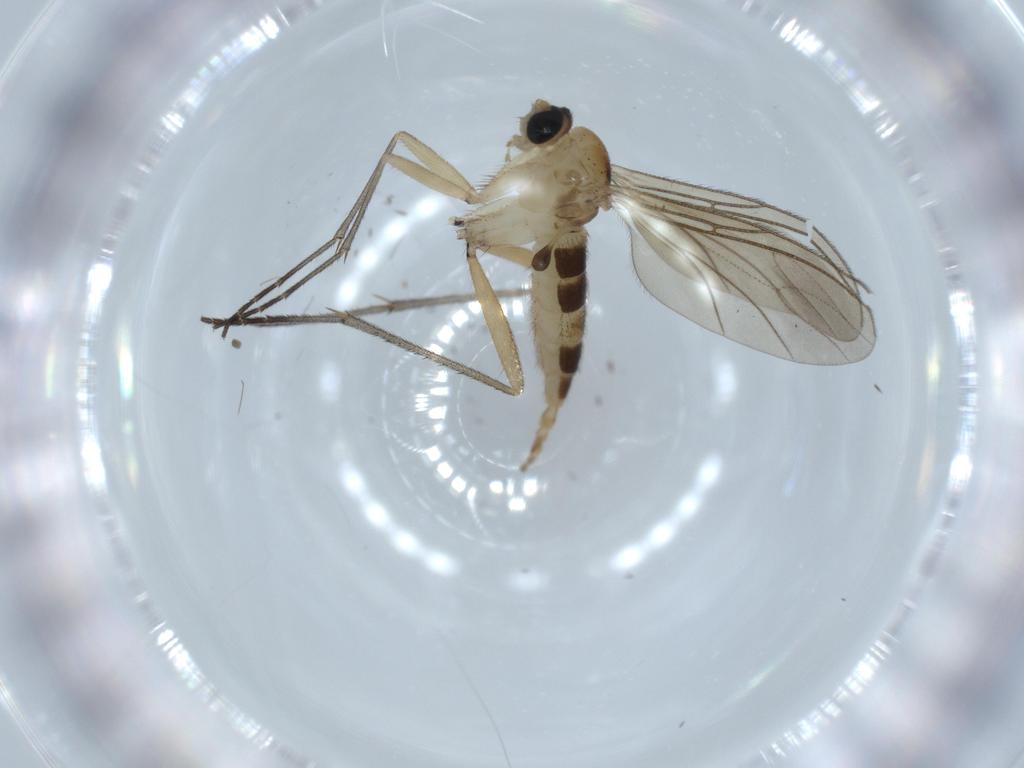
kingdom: Animalia
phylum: Arthropoda
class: Insecta
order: Diptera
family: Sciaridae
